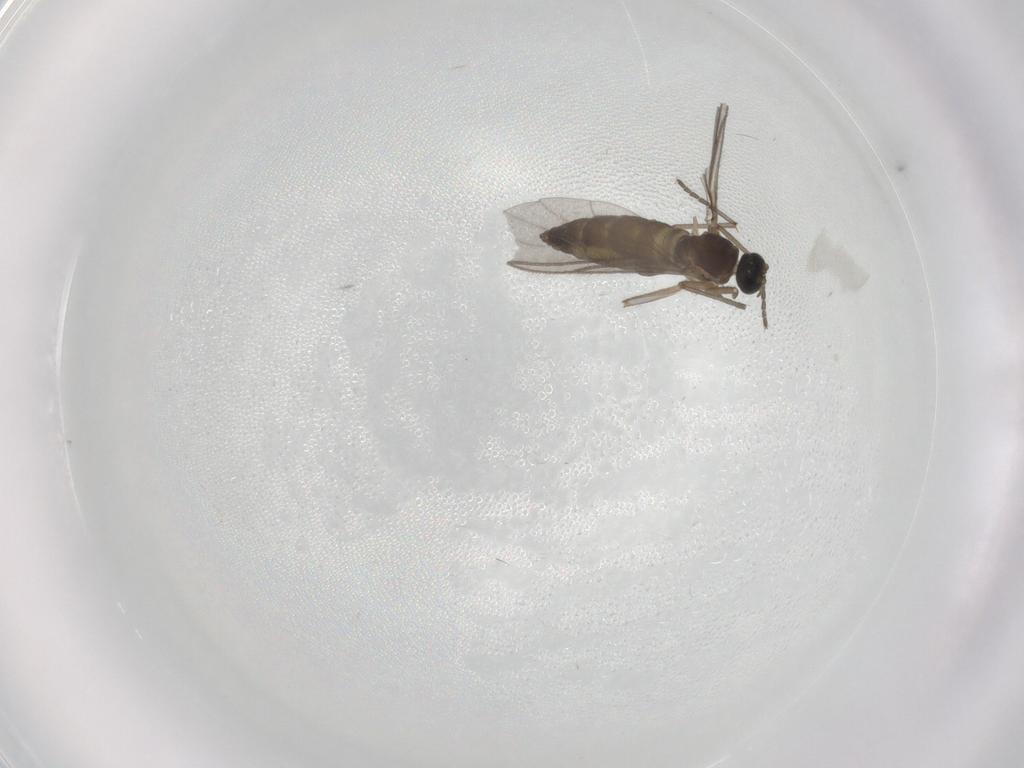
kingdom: Animalia
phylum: Arthropoda
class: Insecta
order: Diptera
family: Sciaridae
